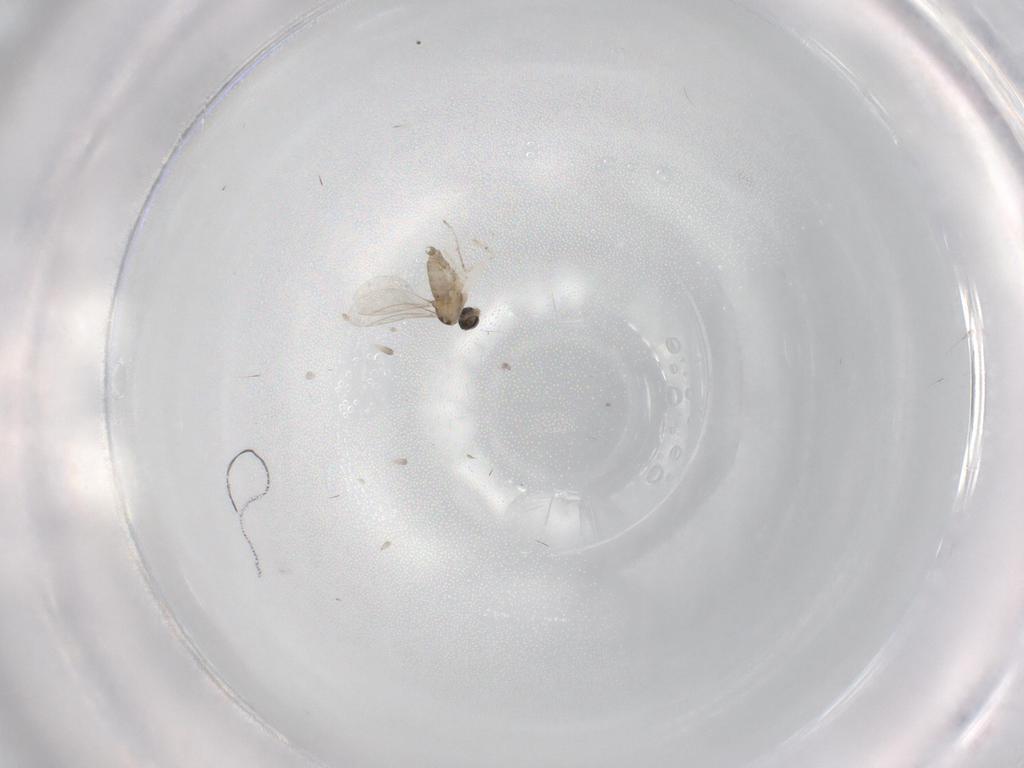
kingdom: Animalia
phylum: Arthropoda
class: Insecta
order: Diptera
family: Cecidomyiidae
